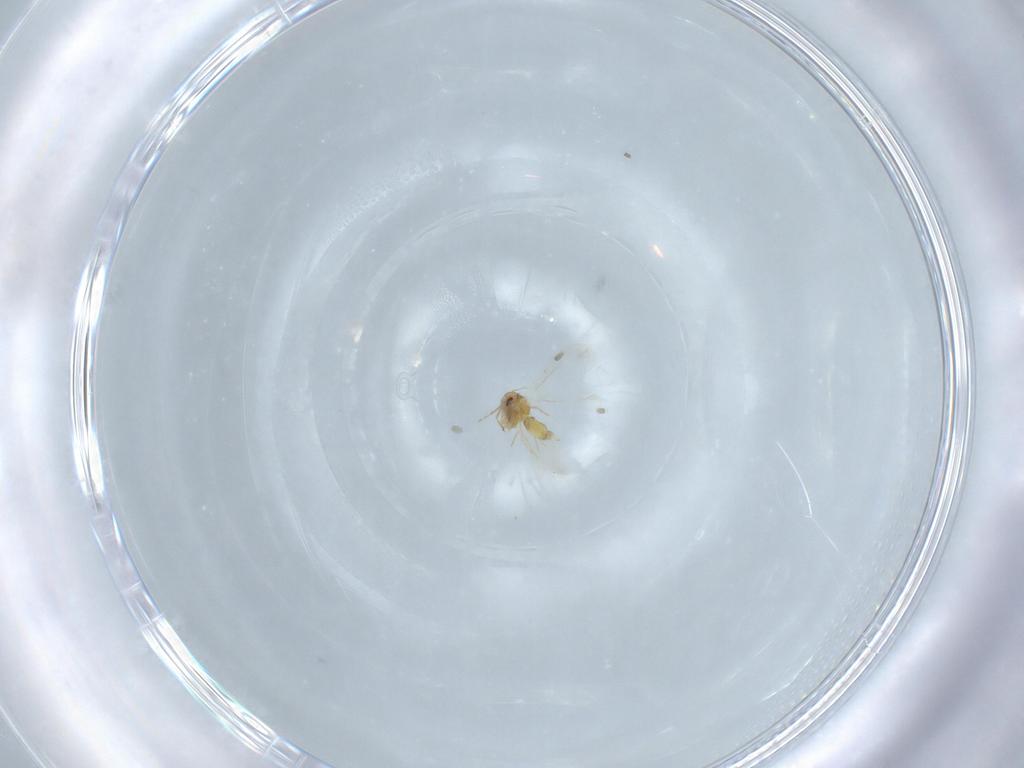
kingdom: Animalia
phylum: Arthropoda
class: Insecta
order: Hemiptera
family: Aleyrodidae
